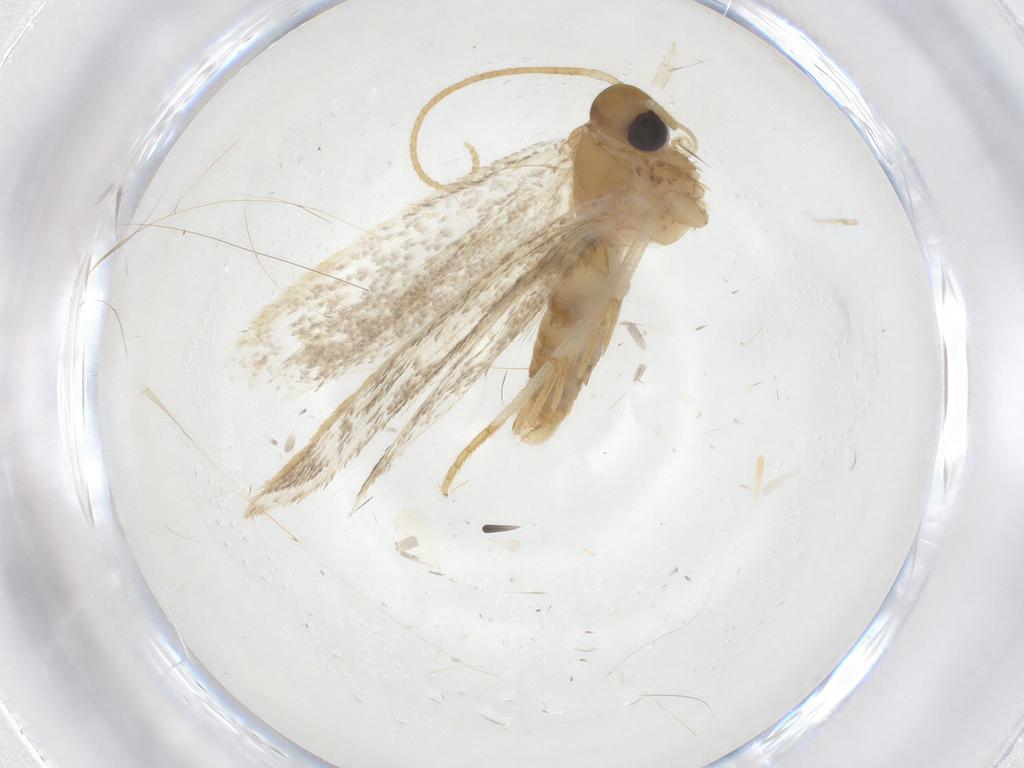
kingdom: Animalia
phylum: Arthropoda
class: Insecta
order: Lepidoptera
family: Oecophoridae
